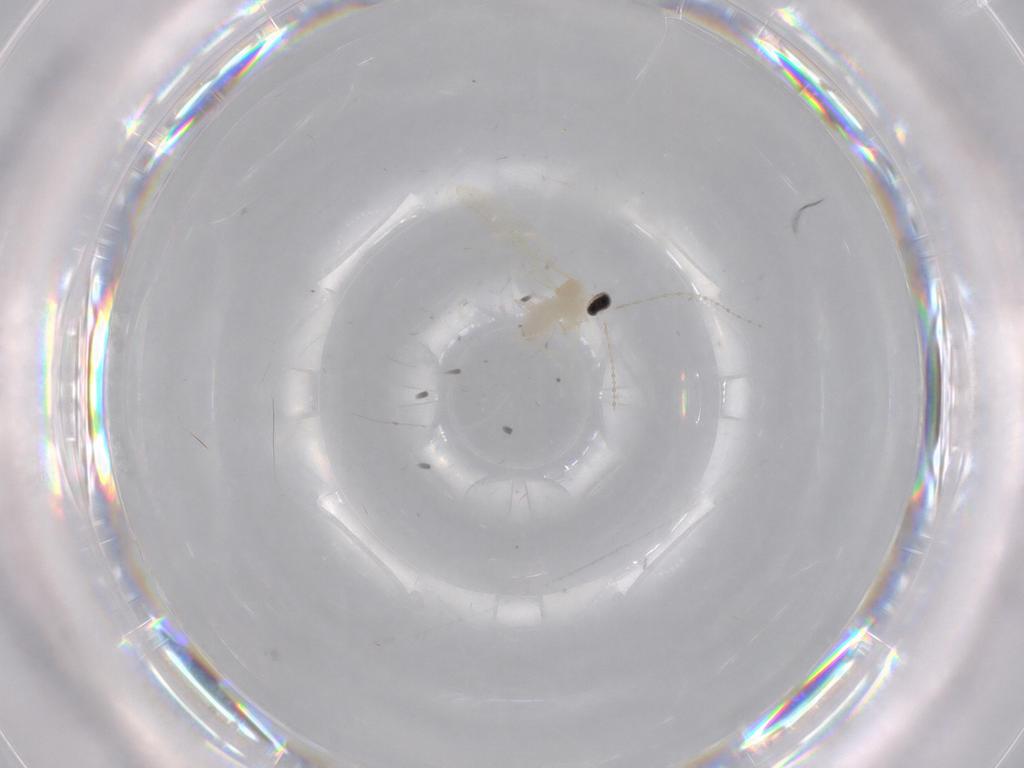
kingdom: Animalia
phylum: Arthropoda
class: Insecta
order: Diptera
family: Cecidomyiidae
